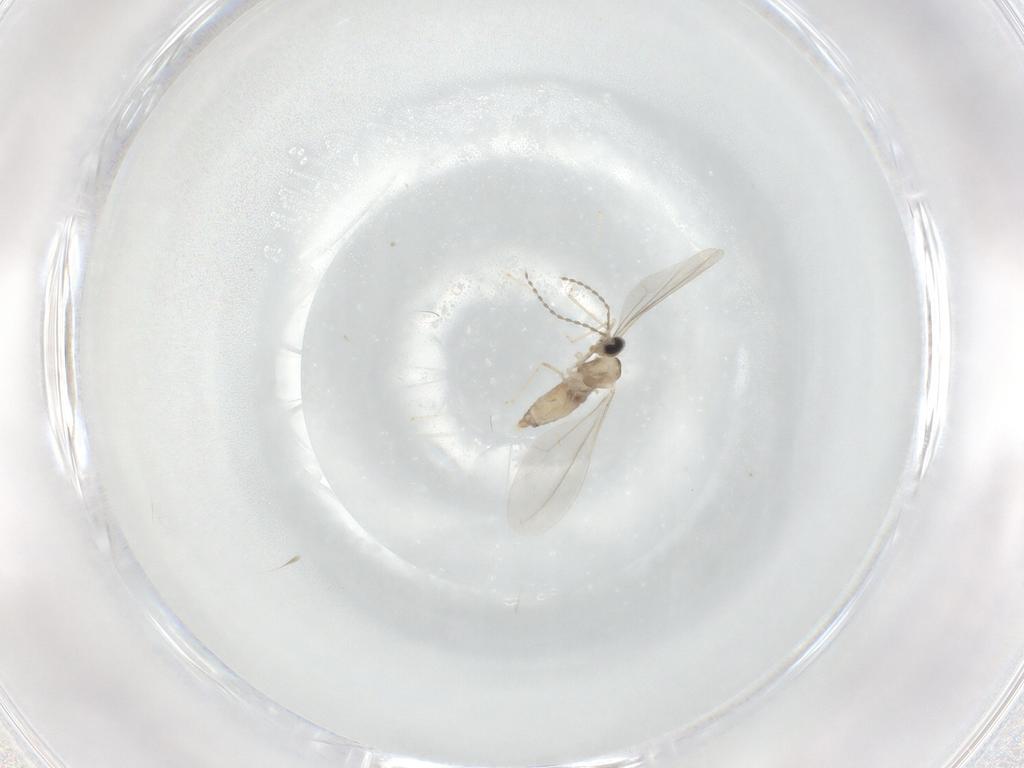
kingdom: Animalia
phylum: Arthropoda
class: Insecta
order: Diptera
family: Cecidomyiidae
